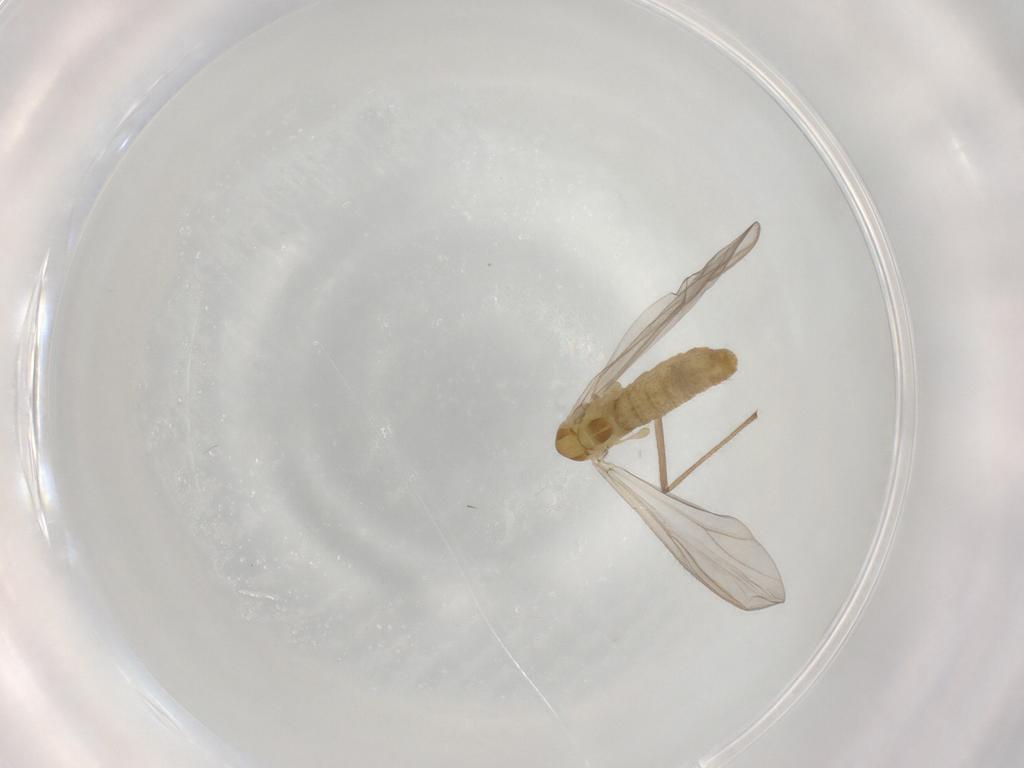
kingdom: Animalia
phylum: Arthropoda
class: Insecta
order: Diptera
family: Chironomidae
